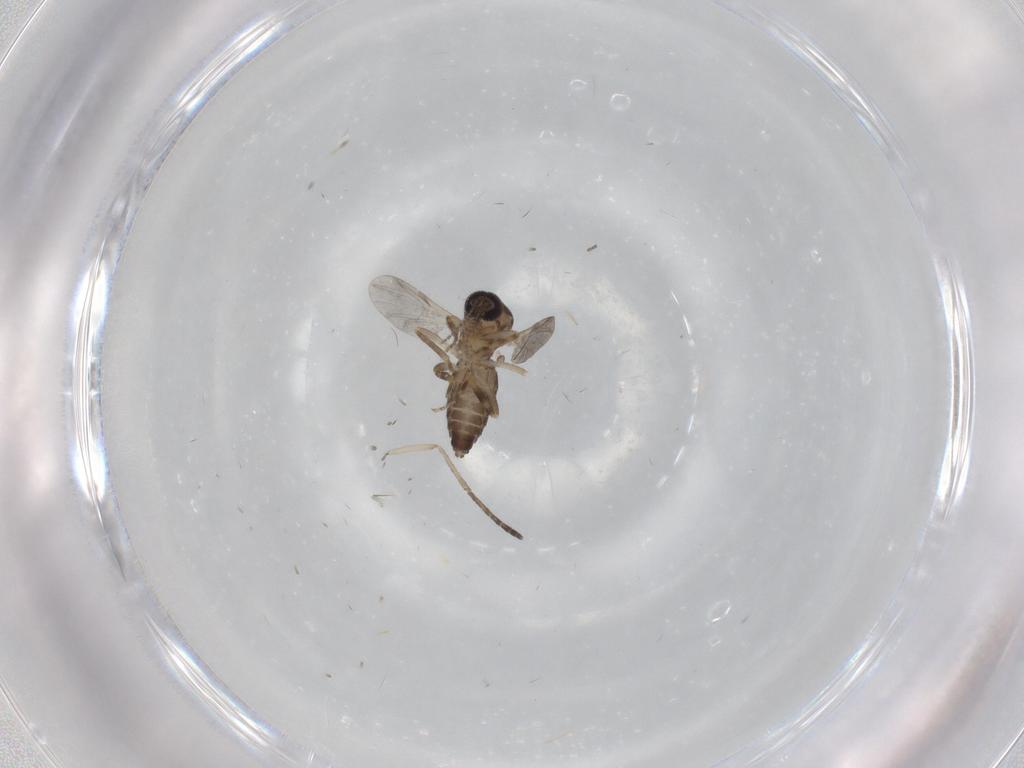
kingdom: Animalia
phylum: Arthropoda
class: Insecta
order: Diptera
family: Ceratopogonidae
